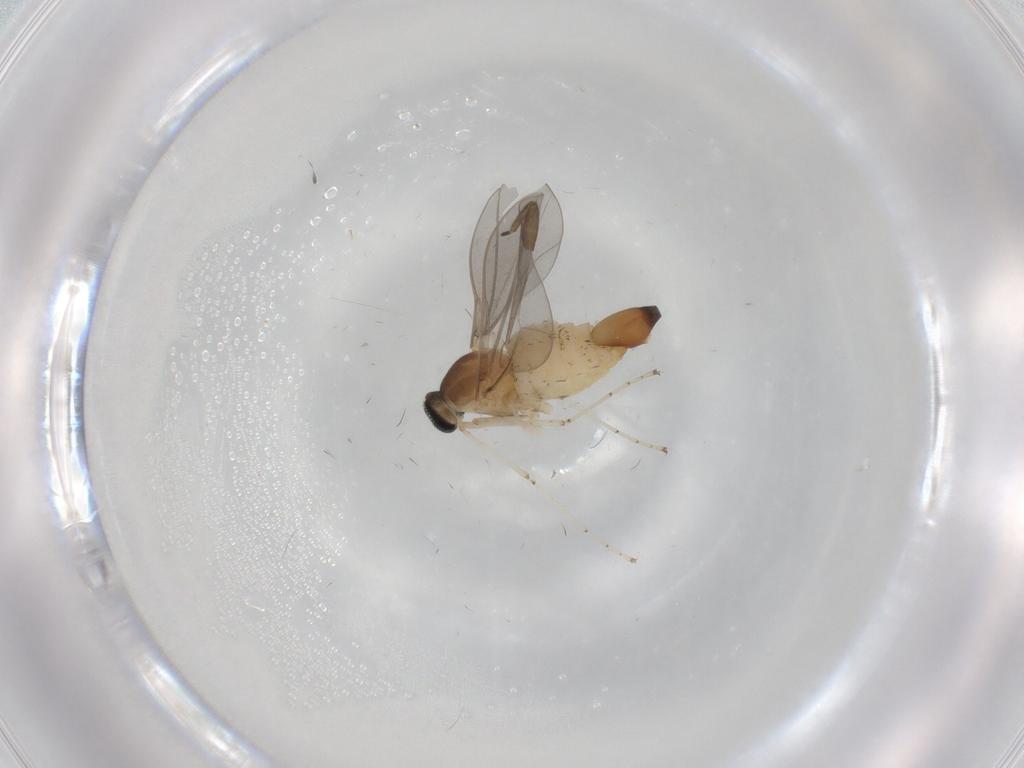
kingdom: Animalia
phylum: Arthropoda
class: Insecta
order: Diptera
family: Cecidomyiidae
